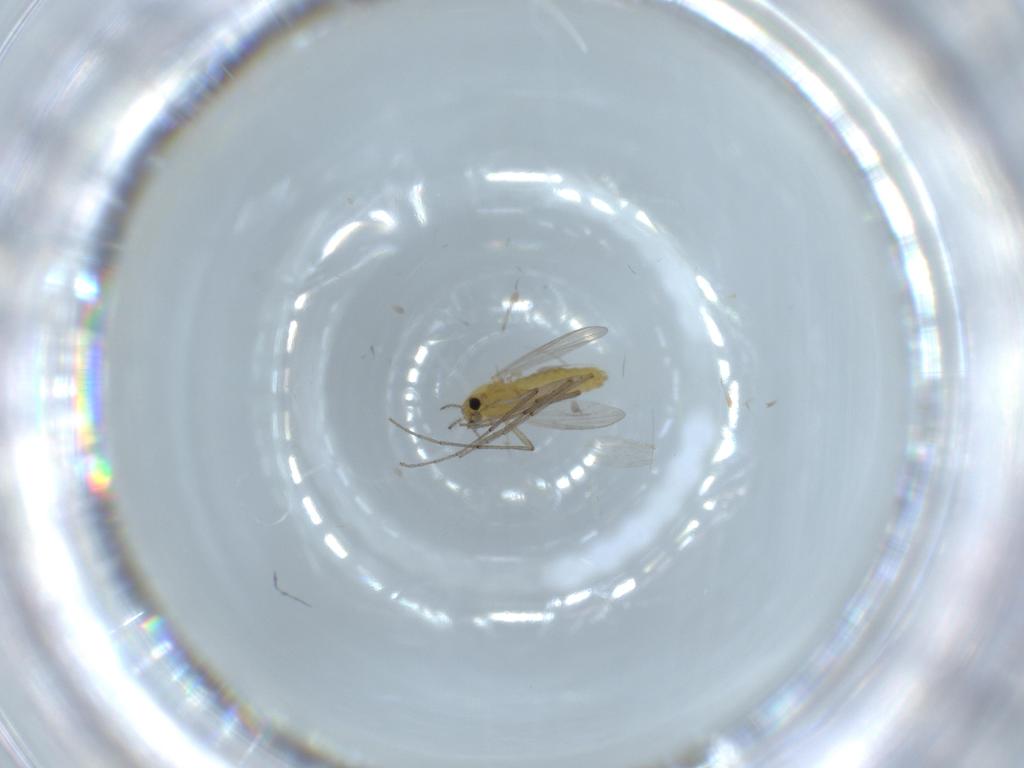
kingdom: Animalia
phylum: Arthropoda
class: Insecta
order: Diptera
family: Chironomidae
